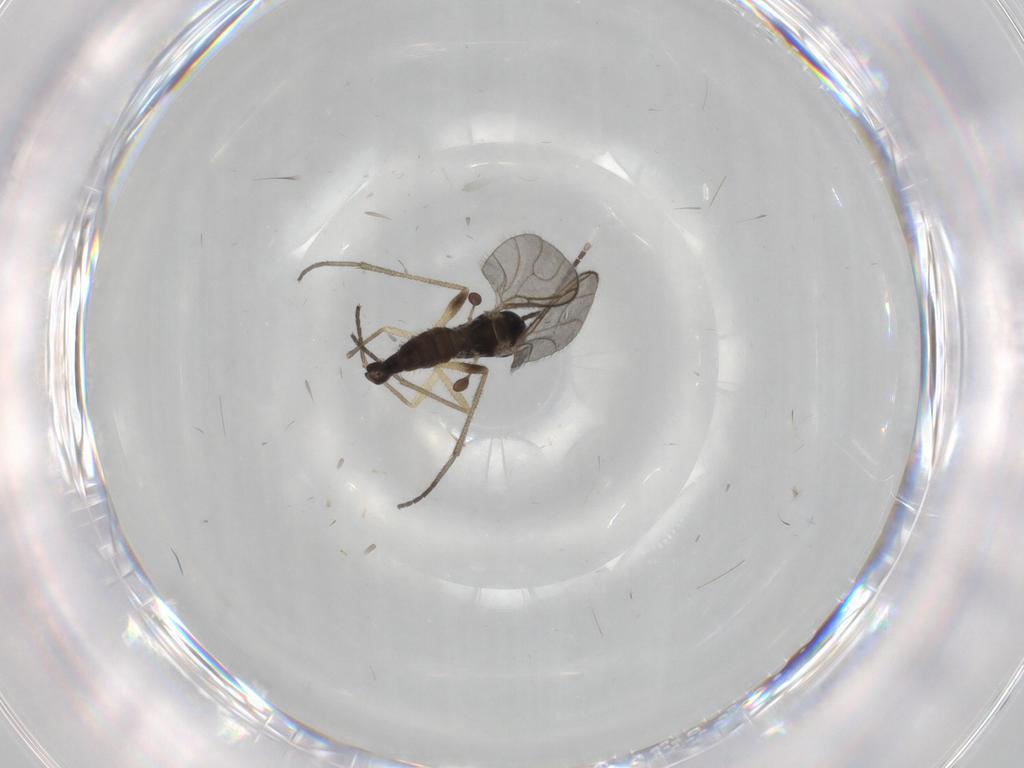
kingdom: Animalia
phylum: Arthropoda
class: Insecta
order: Diptera
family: Sciaridae
